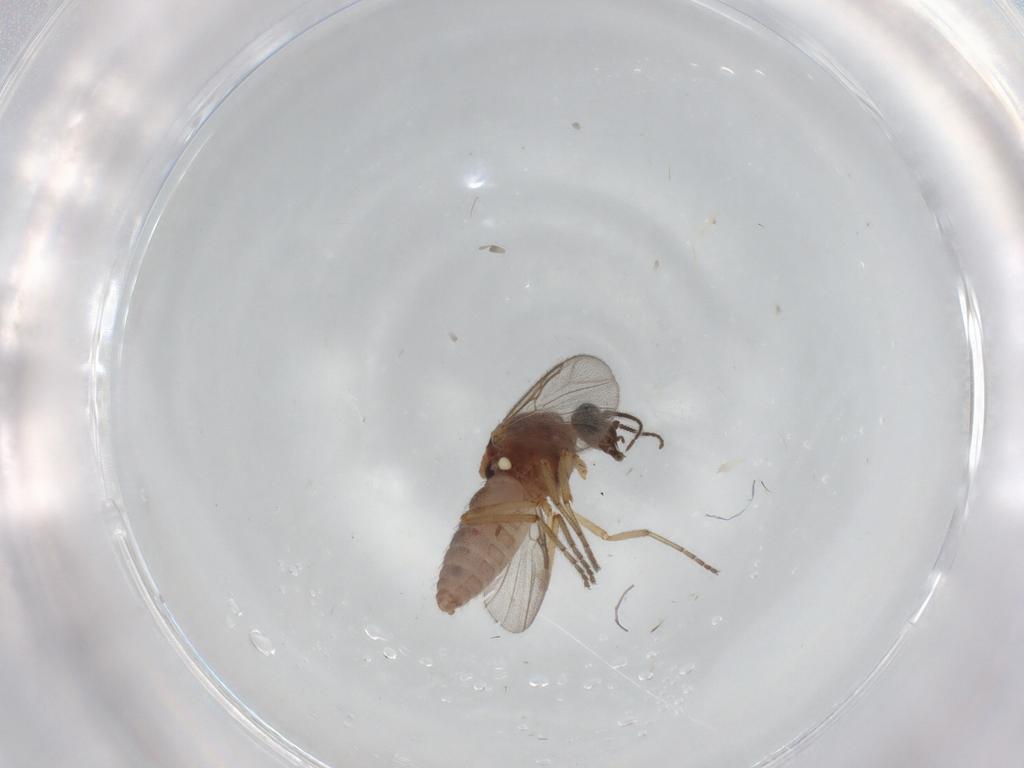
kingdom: Animalia
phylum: Arthropoda
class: Insecta
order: Diptera
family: Ceratopogonidae
